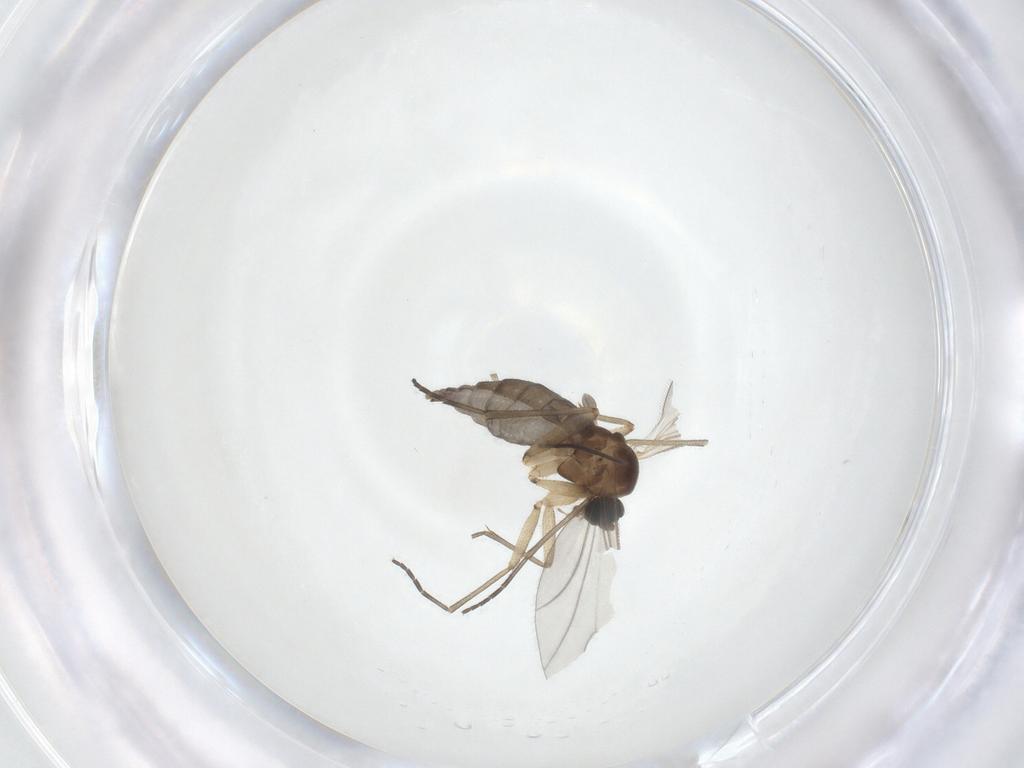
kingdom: Animalia
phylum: Arthropoda
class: Insecta
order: Diptera
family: Sciaridae
